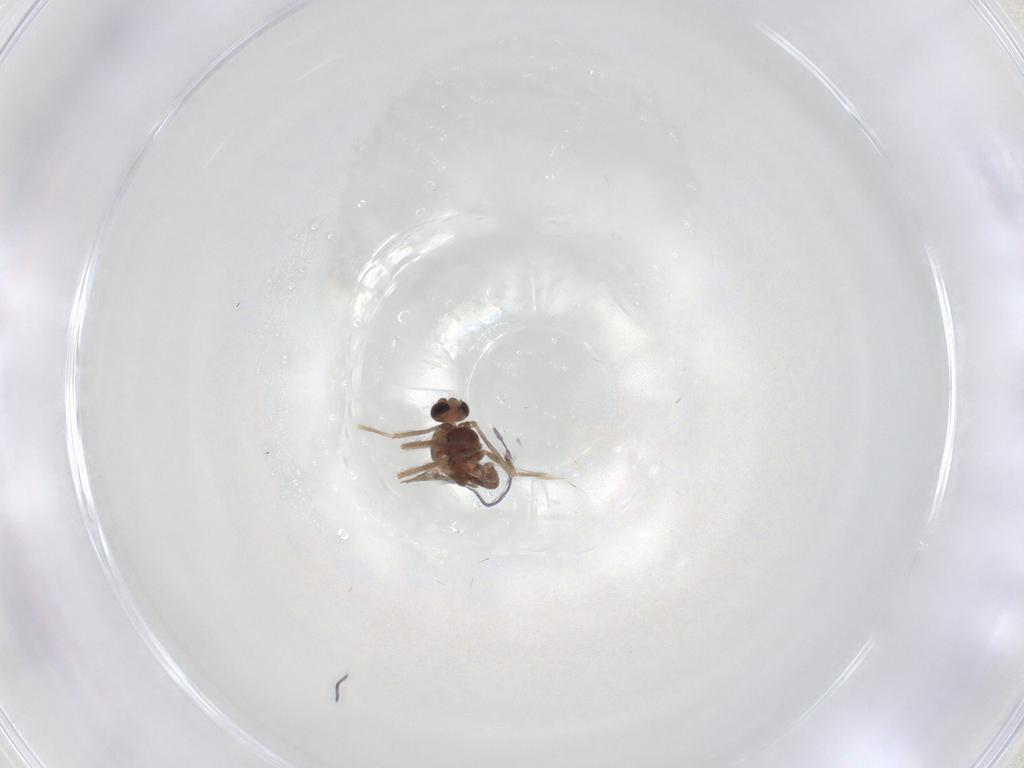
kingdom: Animalia
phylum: Arthropoda
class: Insecta
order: Diptera
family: Chironomidae
